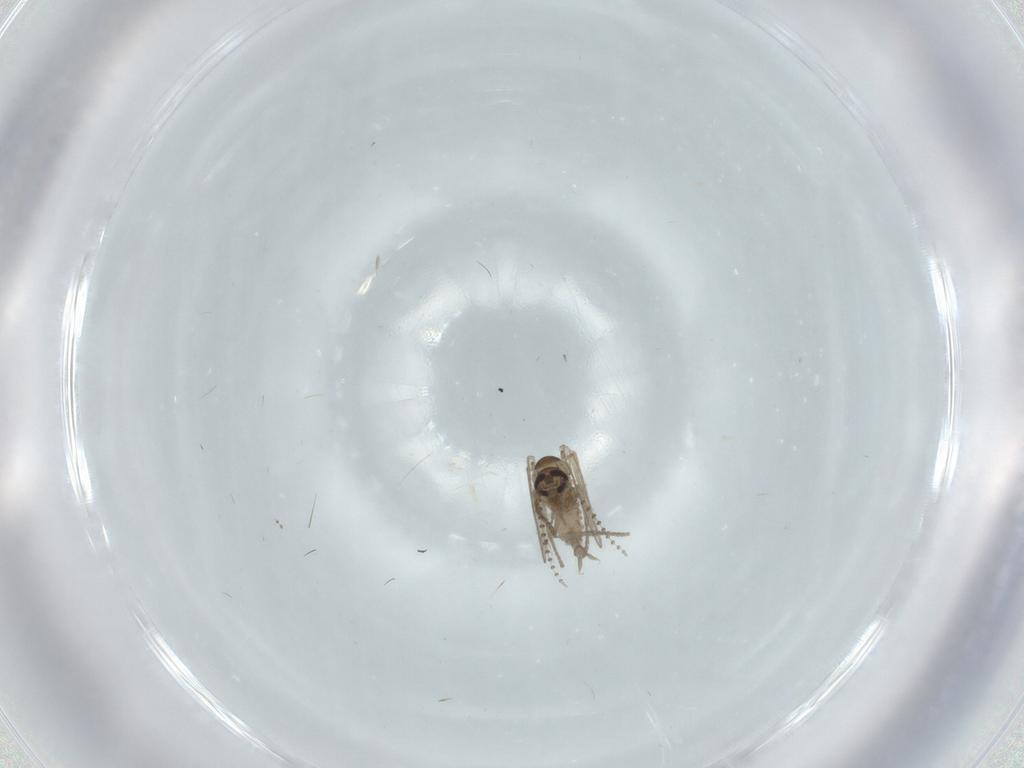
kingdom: Animalia
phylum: Arthropoda
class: Insecta
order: Diptera
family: Psychodidae
